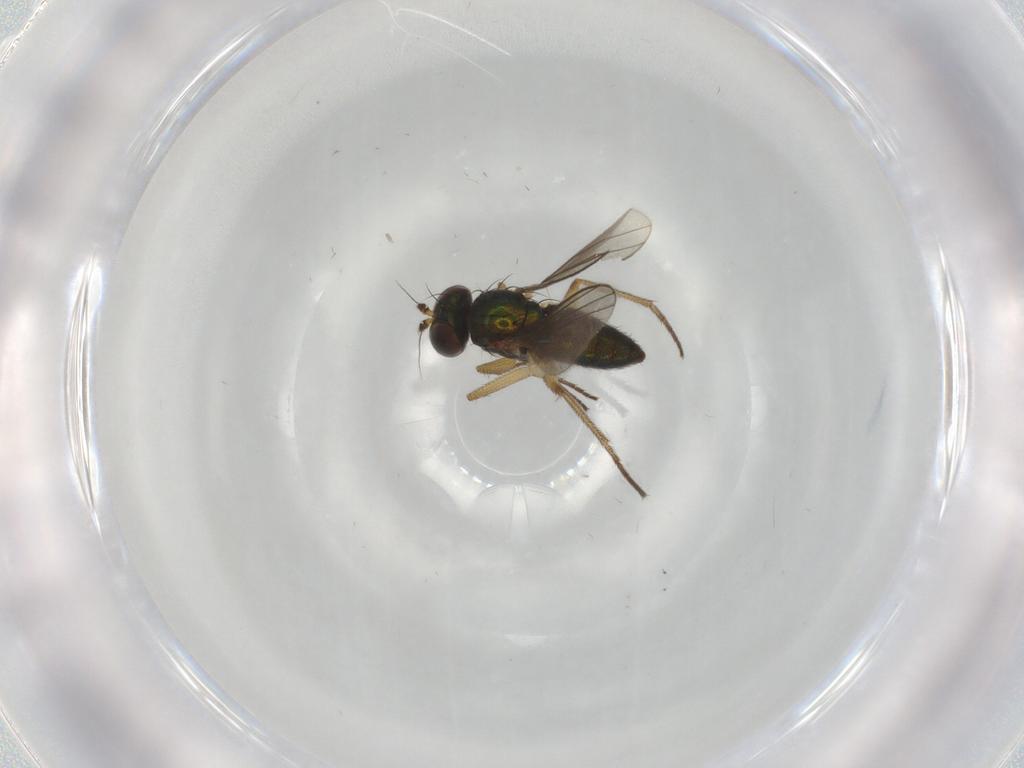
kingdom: Animalia
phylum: Arthropoda
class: Insecta
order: Diptera
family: Dolichopodidae
